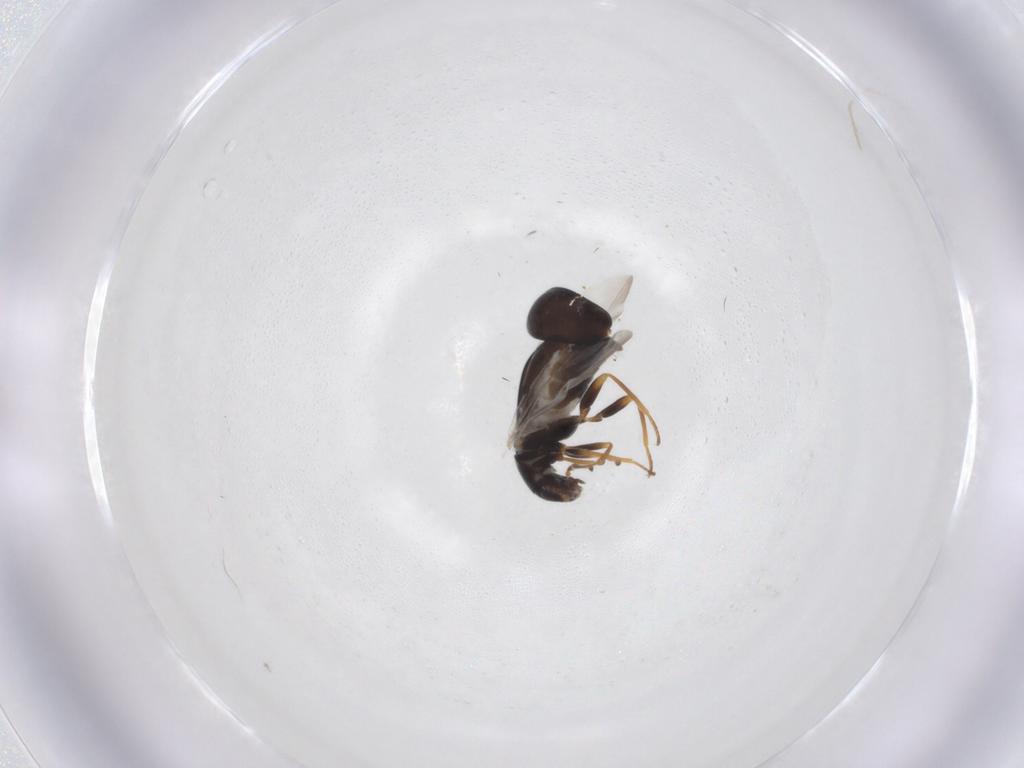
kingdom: Animalia
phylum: Arthropoda
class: Insecta
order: Coleoptera
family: Melyridae
